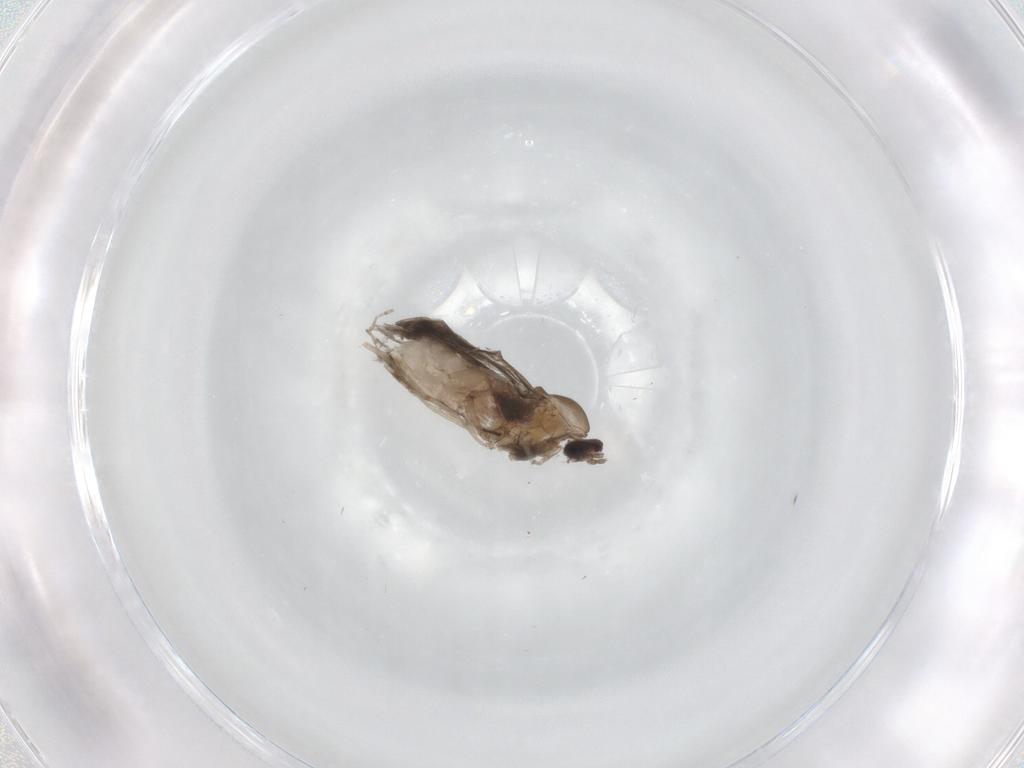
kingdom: Animalia
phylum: Arthropoda
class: Insecta
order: Diptera
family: Cecidomyiidae
